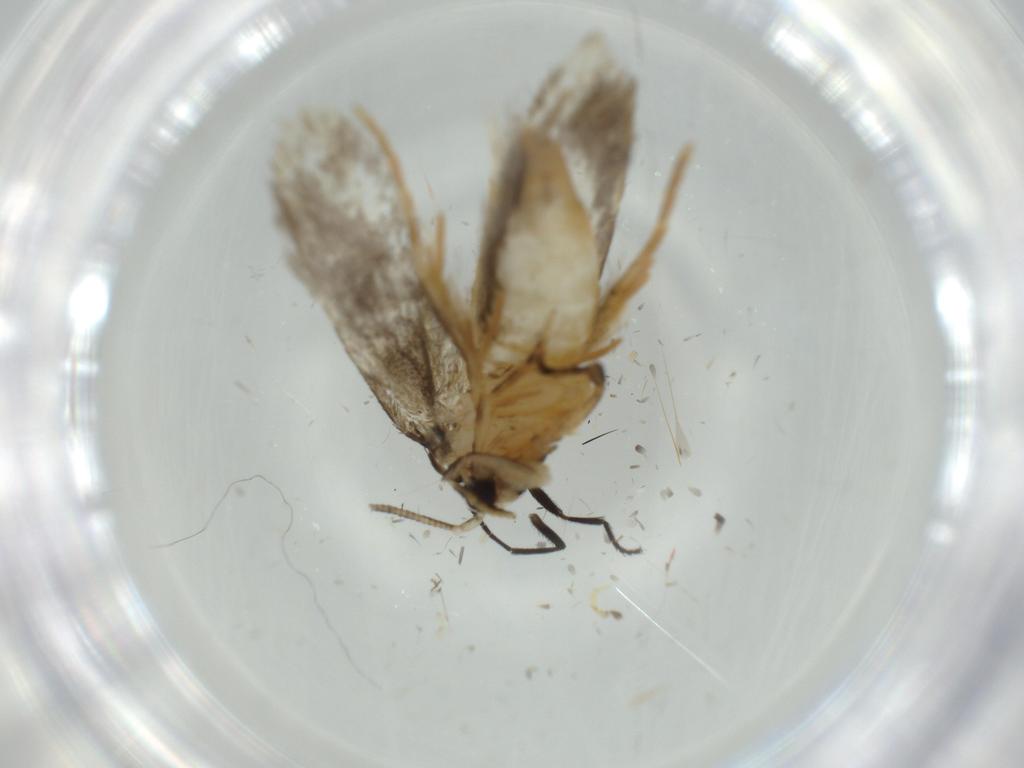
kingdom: Animalia
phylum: Arthropoda
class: Insecta
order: Lepidoptera
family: Tineidae
